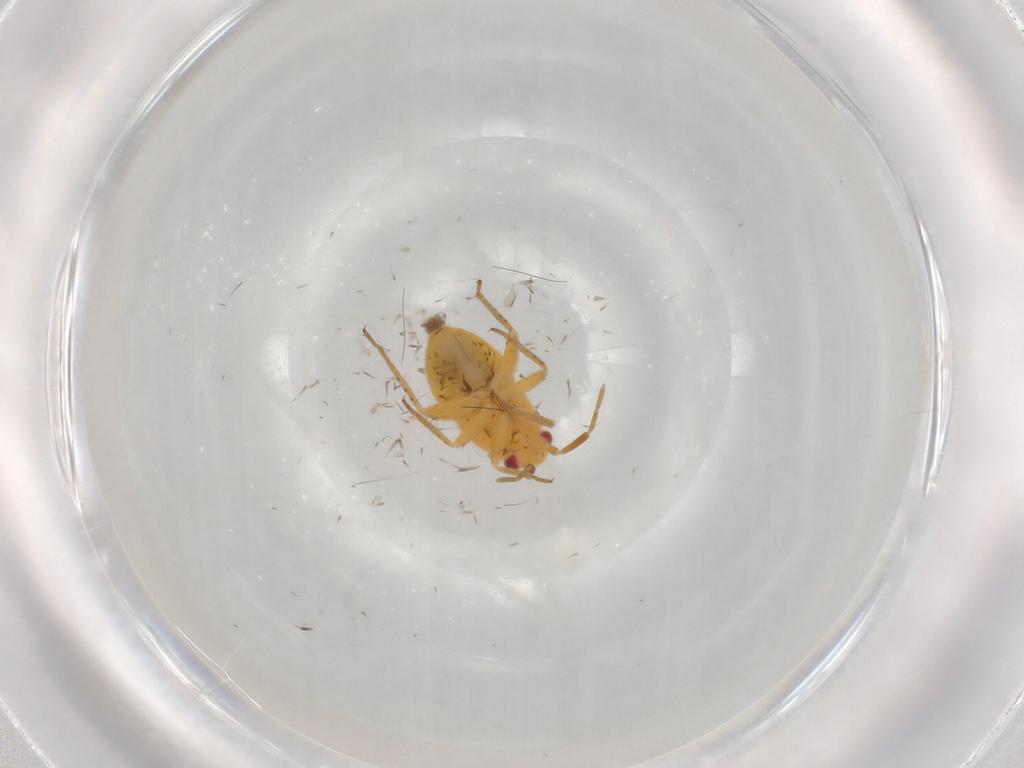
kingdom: Animalia
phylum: Arthropoda
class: Insecta
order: Hemiptera
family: Miridae
